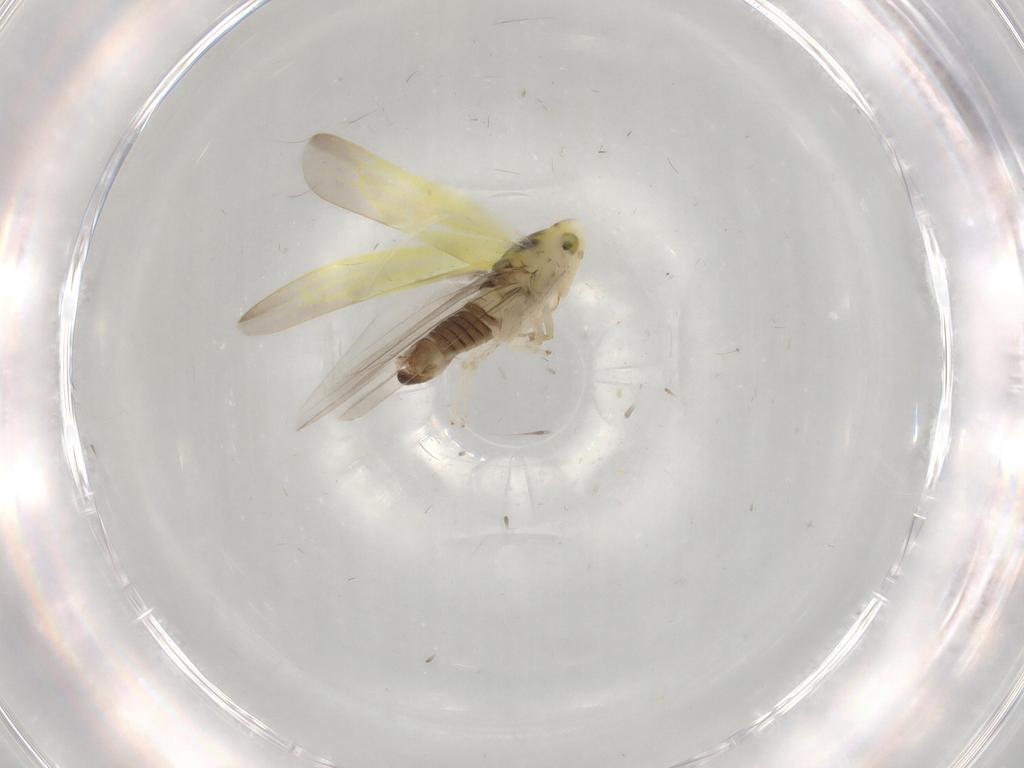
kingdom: Animalia
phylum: Arthropoda
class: Insecta
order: Hemiptera
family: Cicadellidae
